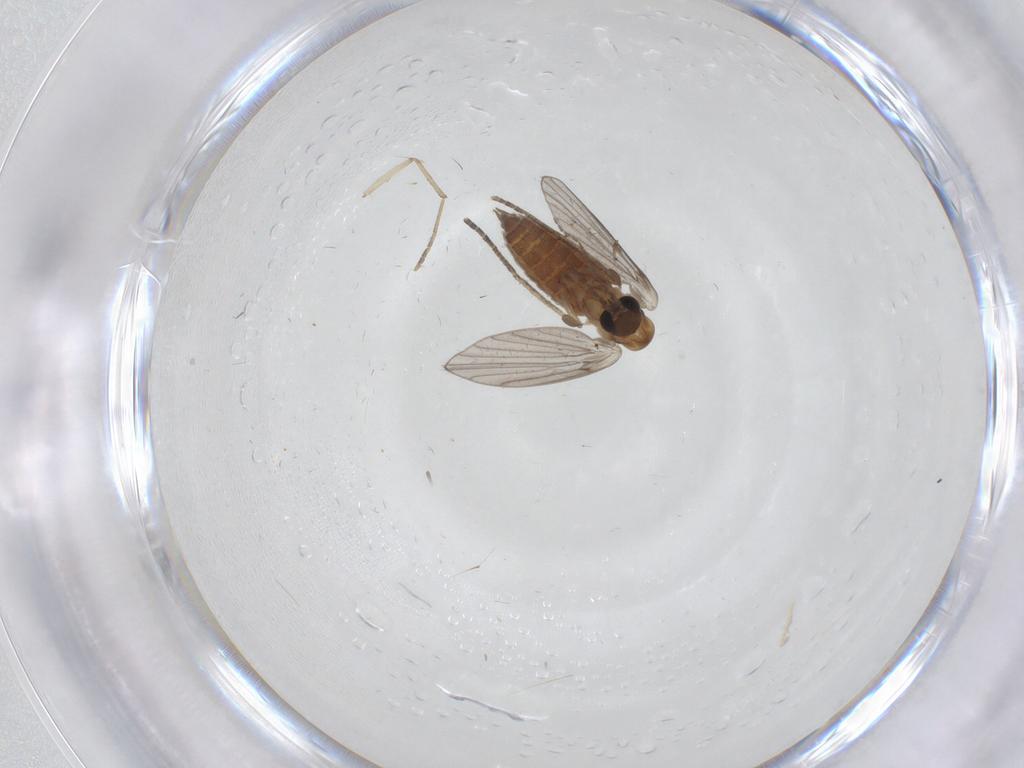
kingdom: Animalia
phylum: Arthropoda
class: Insecta
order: Diptera
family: Cecidomyiidae
